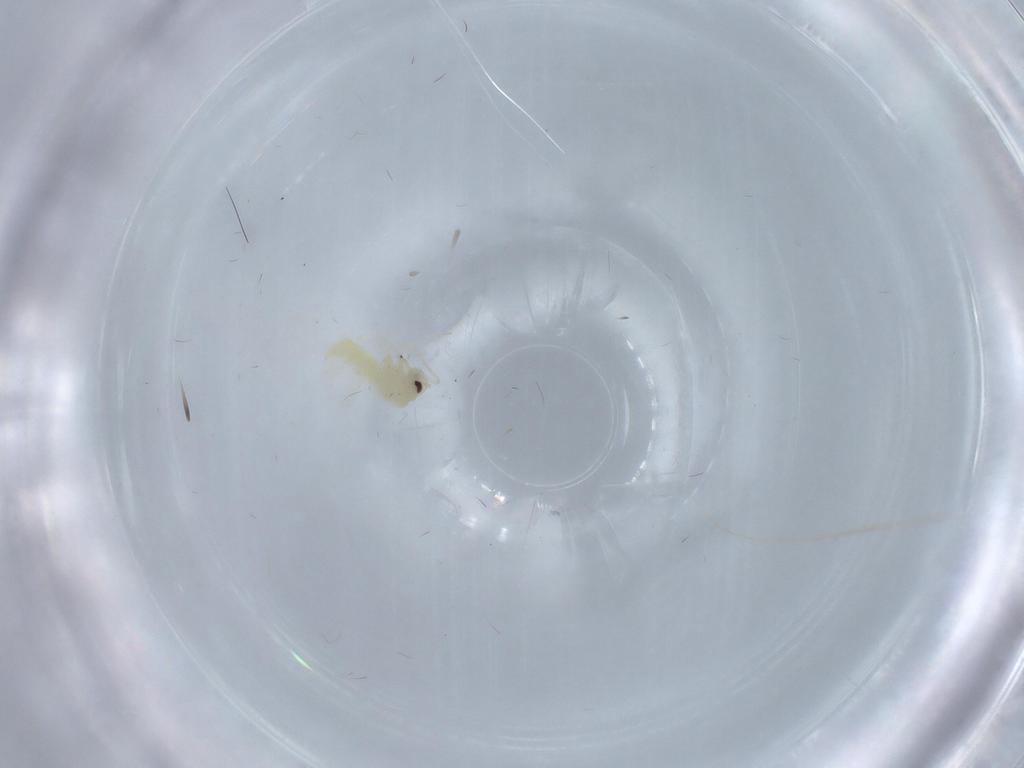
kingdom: Animalia
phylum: Arthropoda
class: Insecta
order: Hemiptera
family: Aleyrodidae
